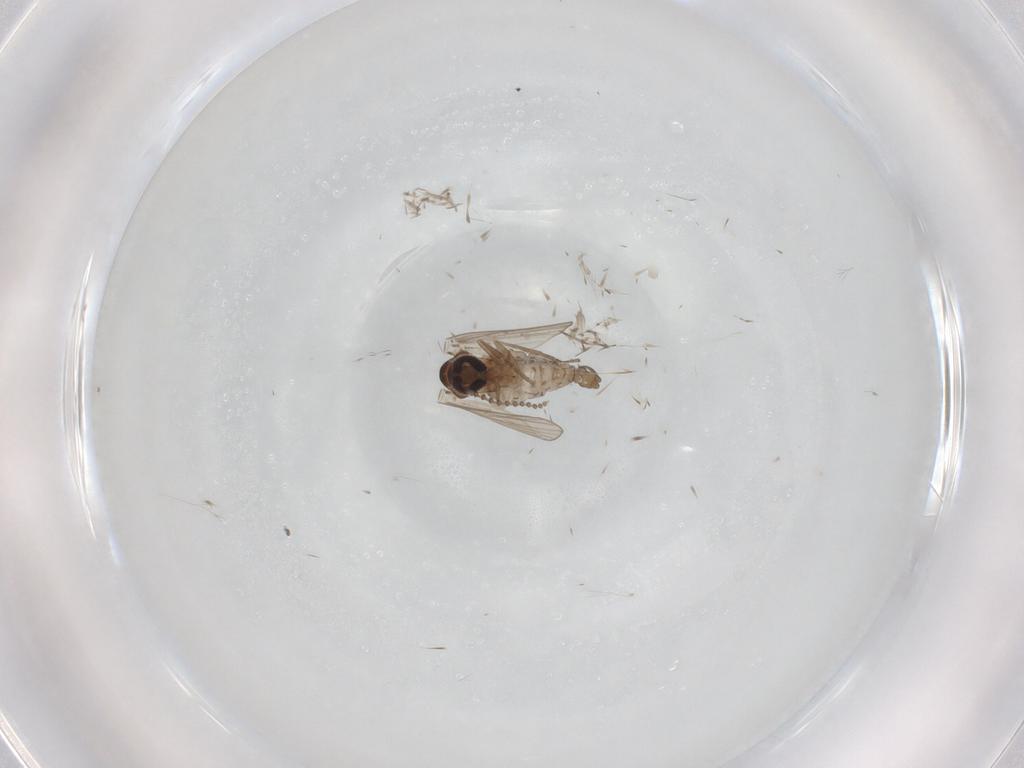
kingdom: Animalia
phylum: Arthropoda
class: Insecta
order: Diptera
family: Psychodidae
